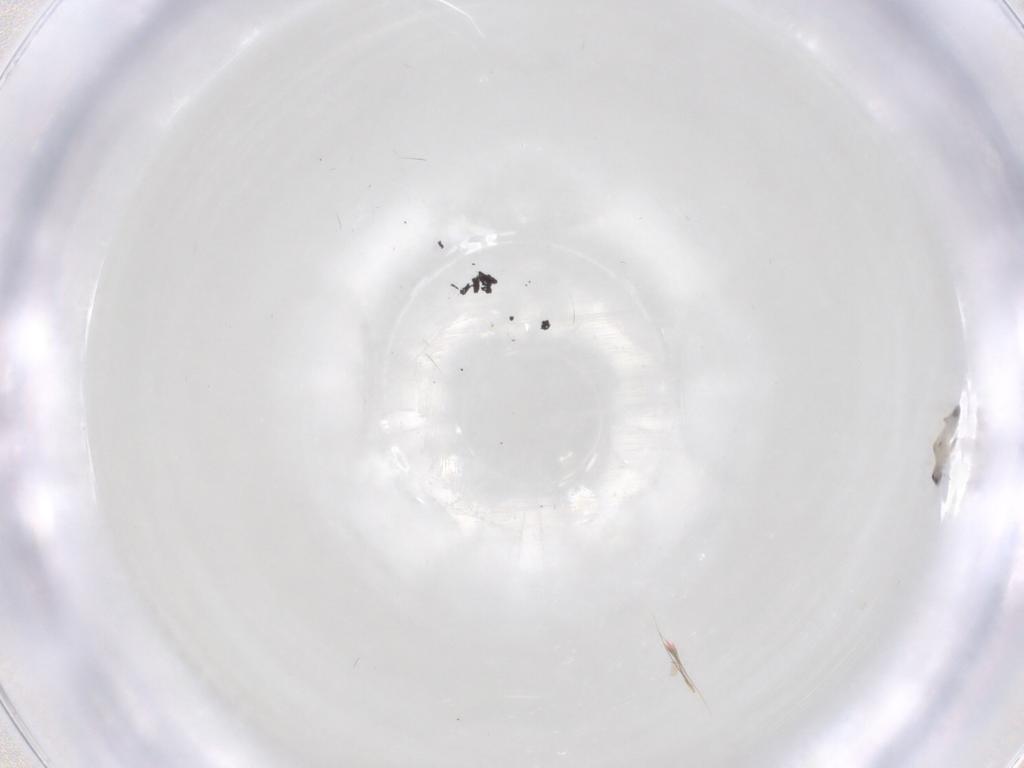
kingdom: Animalia
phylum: Arthropoda
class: Insecta
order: Diptera
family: Cecidomyiidae
